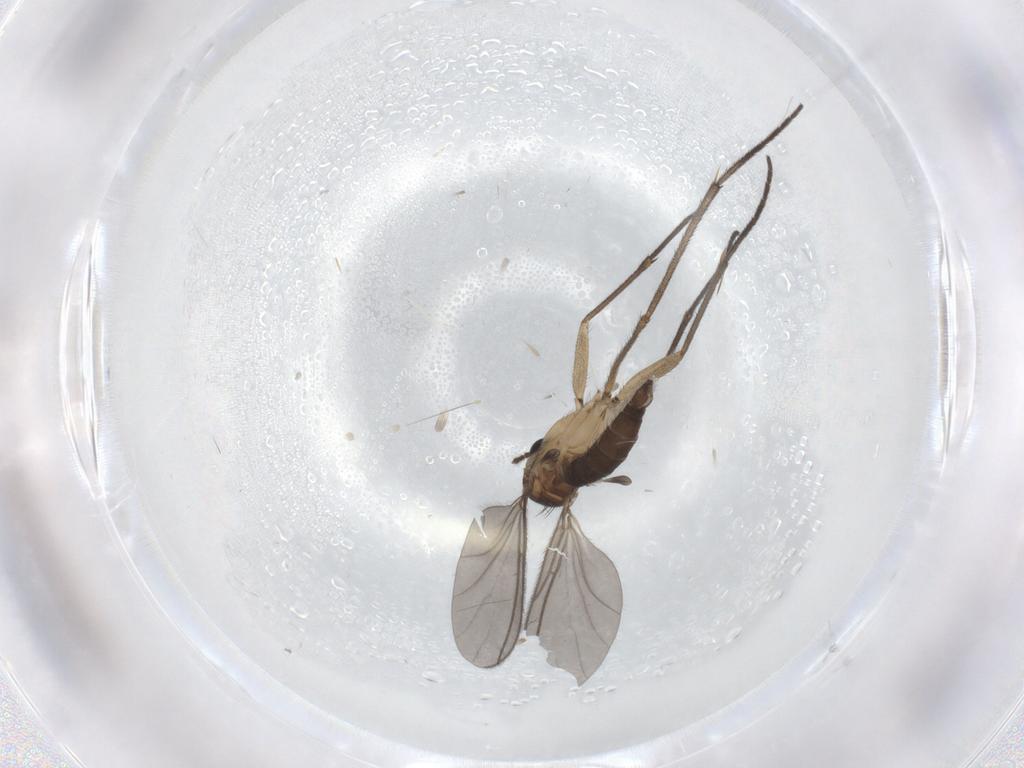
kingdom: Animalia
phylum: Arthropoda
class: Insecta
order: Diptera
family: Sciaridae
